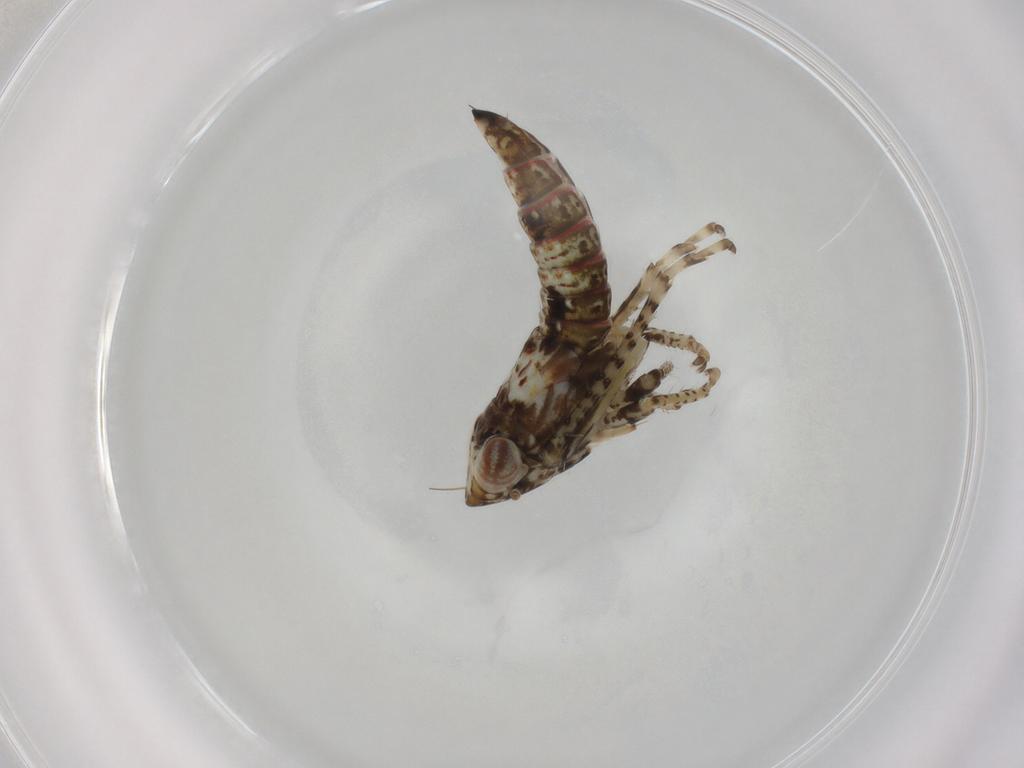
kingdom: Animalia
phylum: Arthropoda
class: Insecta
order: Hemiptera
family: Cicadellidae
